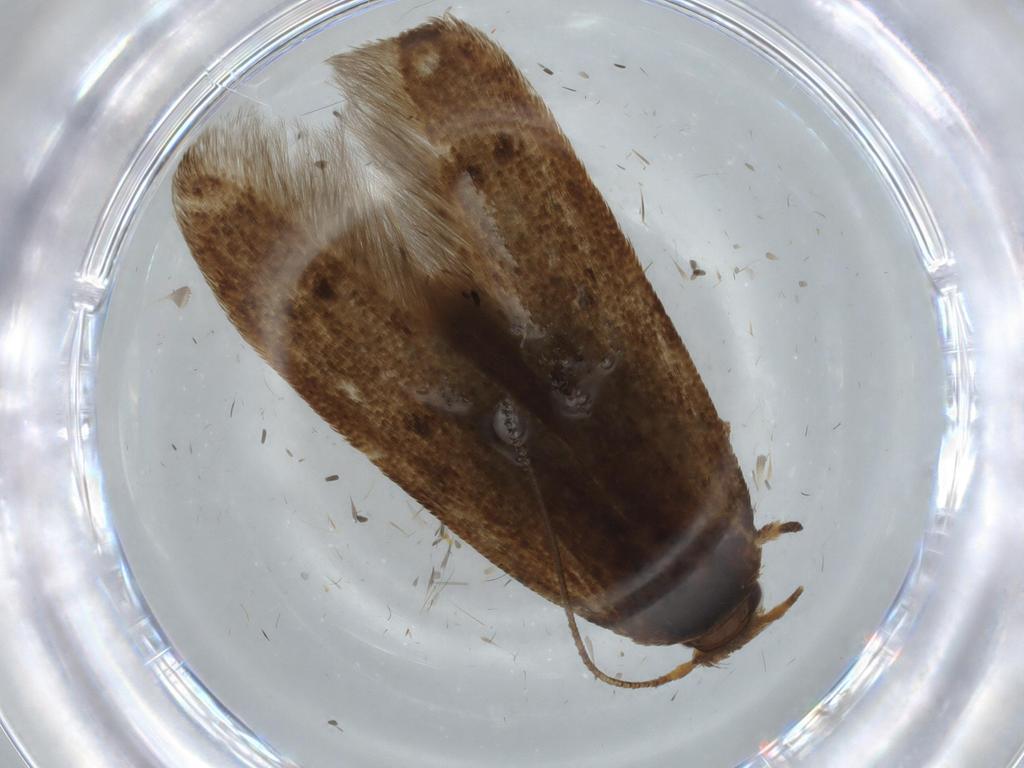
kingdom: Animalia
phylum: Arthropoda
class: Insecta
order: Lepidoptera
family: Coleophoridae
